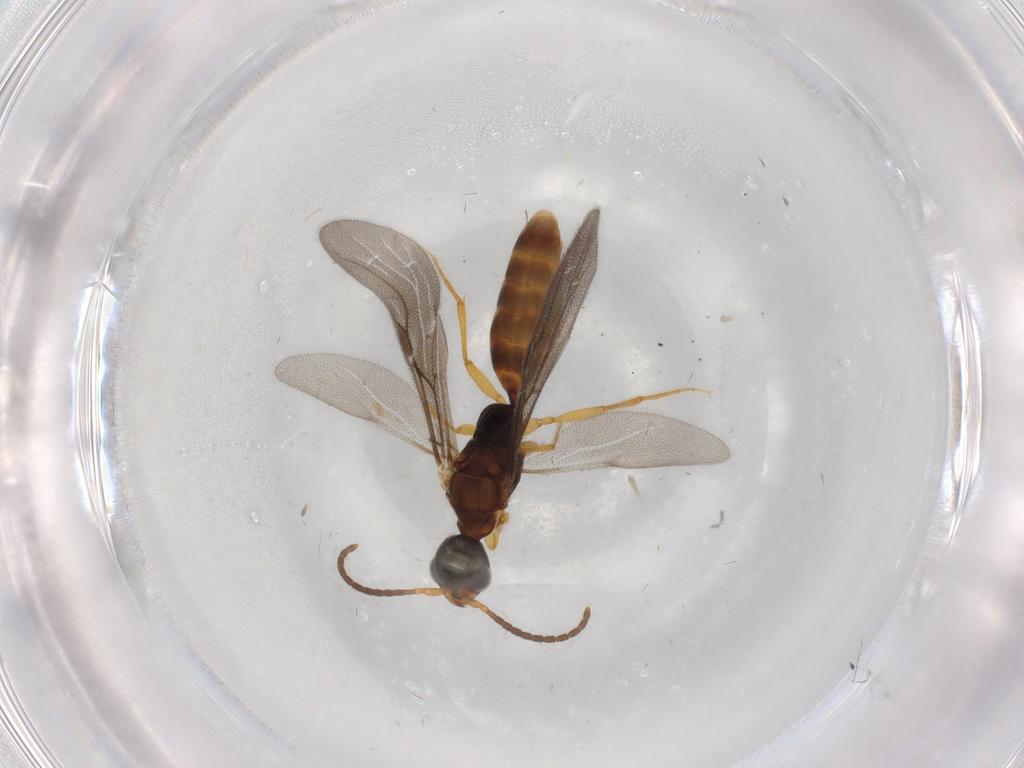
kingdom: Animalia
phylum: Arthropoda
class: Insecta
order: Hymenoptera
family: Bethylidae
